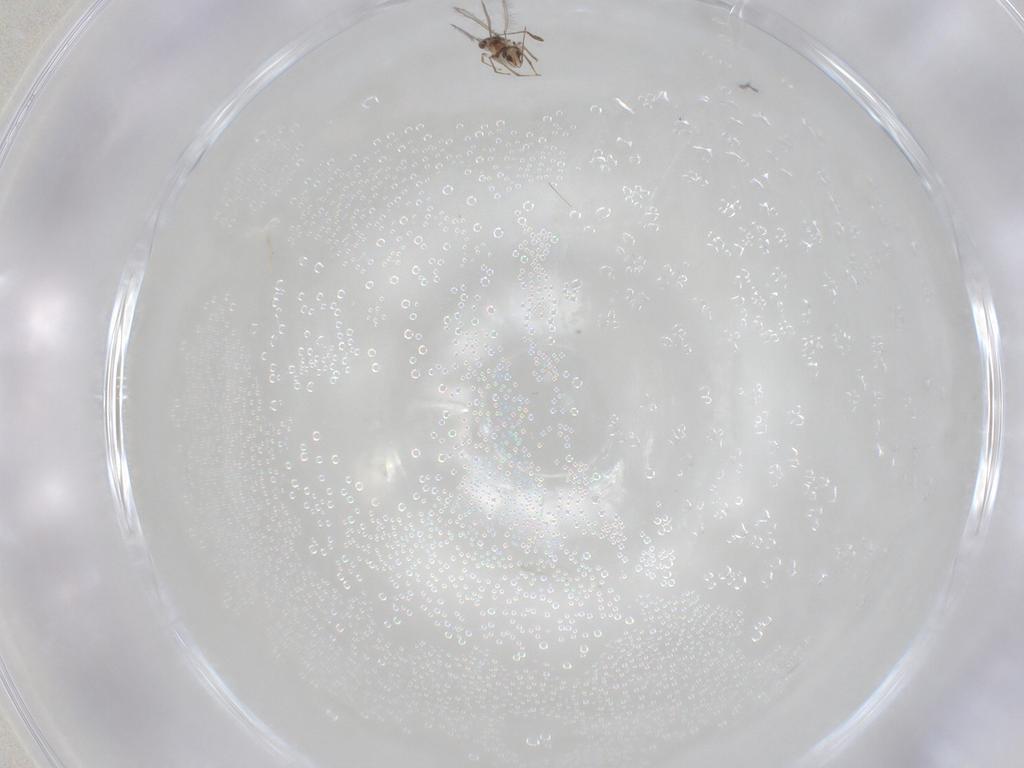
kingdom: Animalia
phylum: Arthropoda
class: Insecta
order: Hymenoptera
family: Mymaridae
